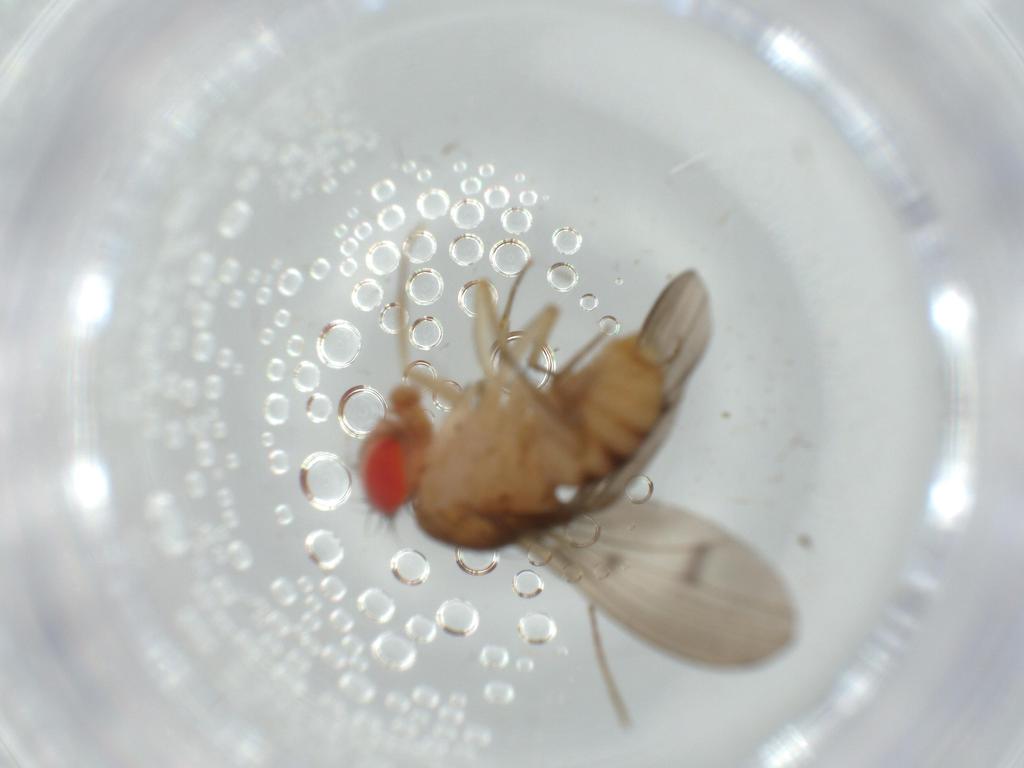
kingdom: Animalia
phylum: Arthropoda
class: Insecta
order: Diptera
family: Drosophilidae
